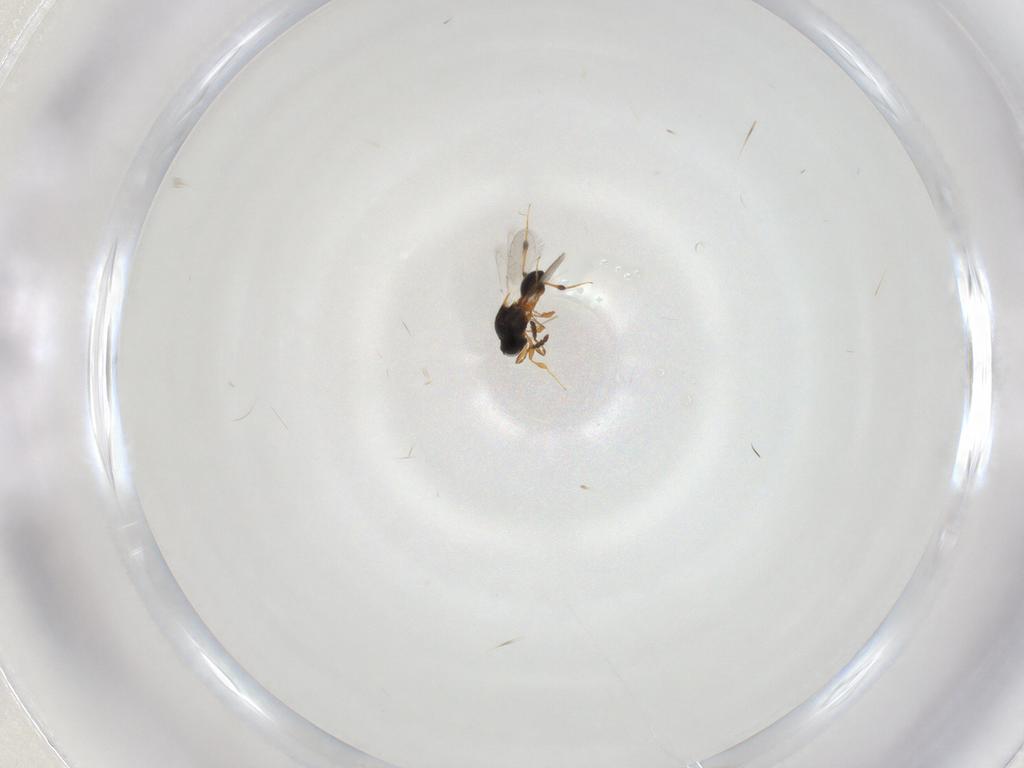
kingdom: Animalia
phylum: Arthropoda
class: Insecta
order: Hymenoptera
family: Platygastridae
